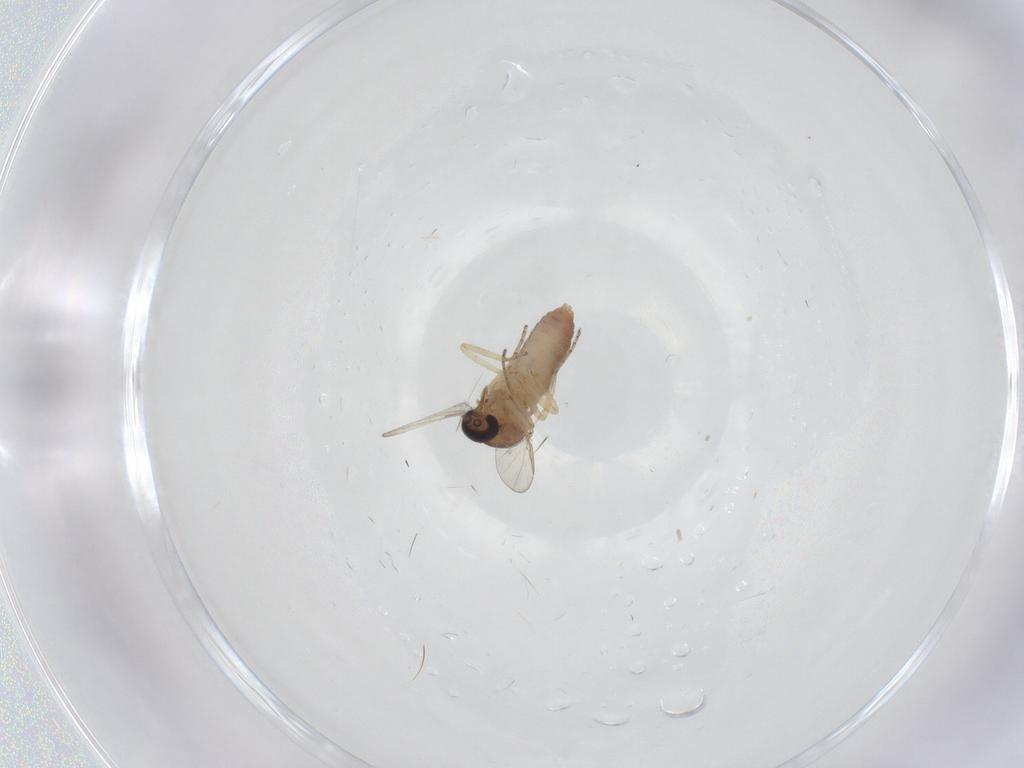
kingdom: Animalia
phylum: Arthropoda
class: Insecta
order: Diptera
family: Ceratopogonidae
